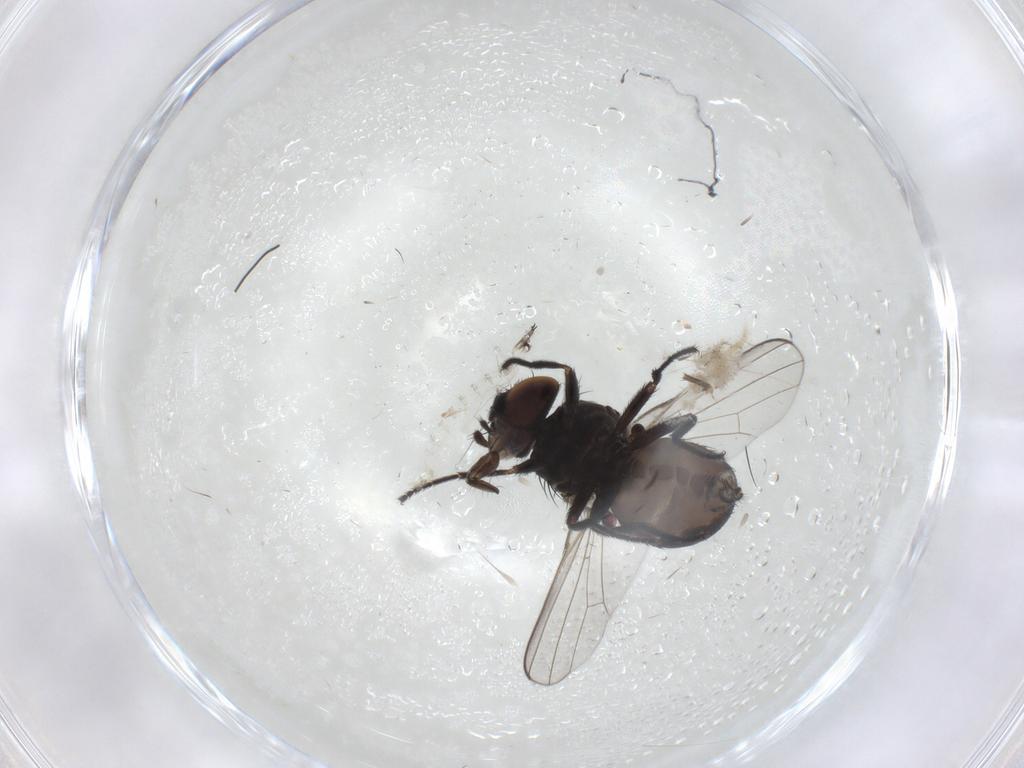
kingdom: Animalia
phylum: Arthropoda
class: Insecta
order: Diptera
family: Milichiidae
